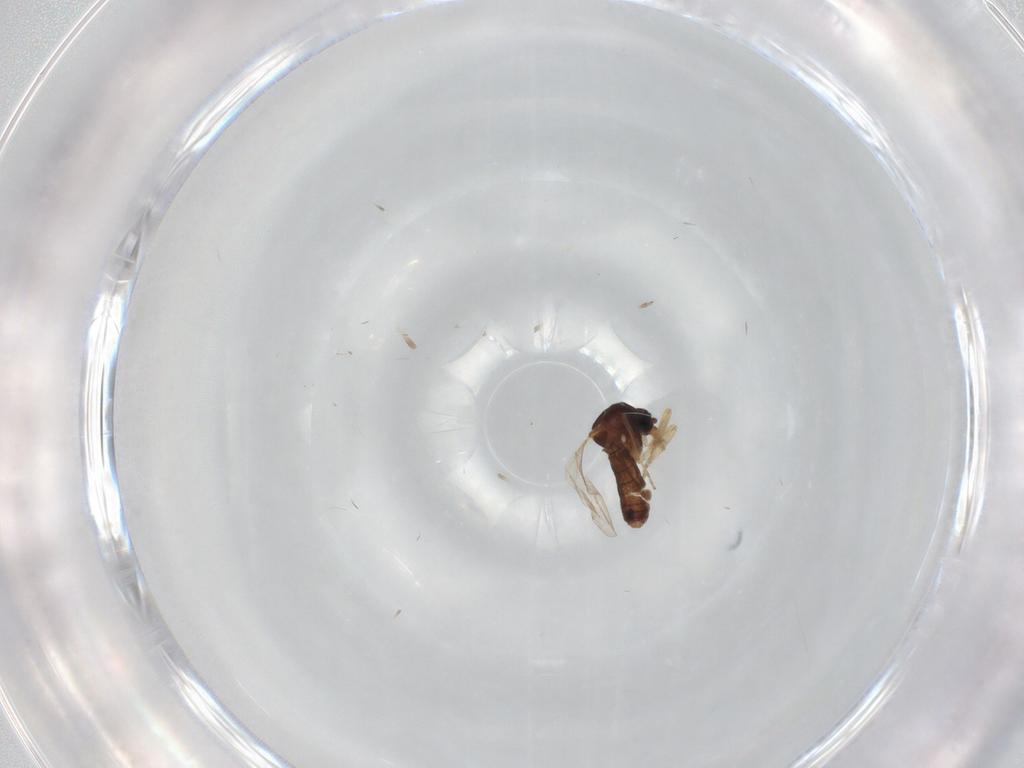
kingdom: Animalia
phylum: Arthropoda
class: Insecta
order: Diptera
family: Ceratopogonidae
